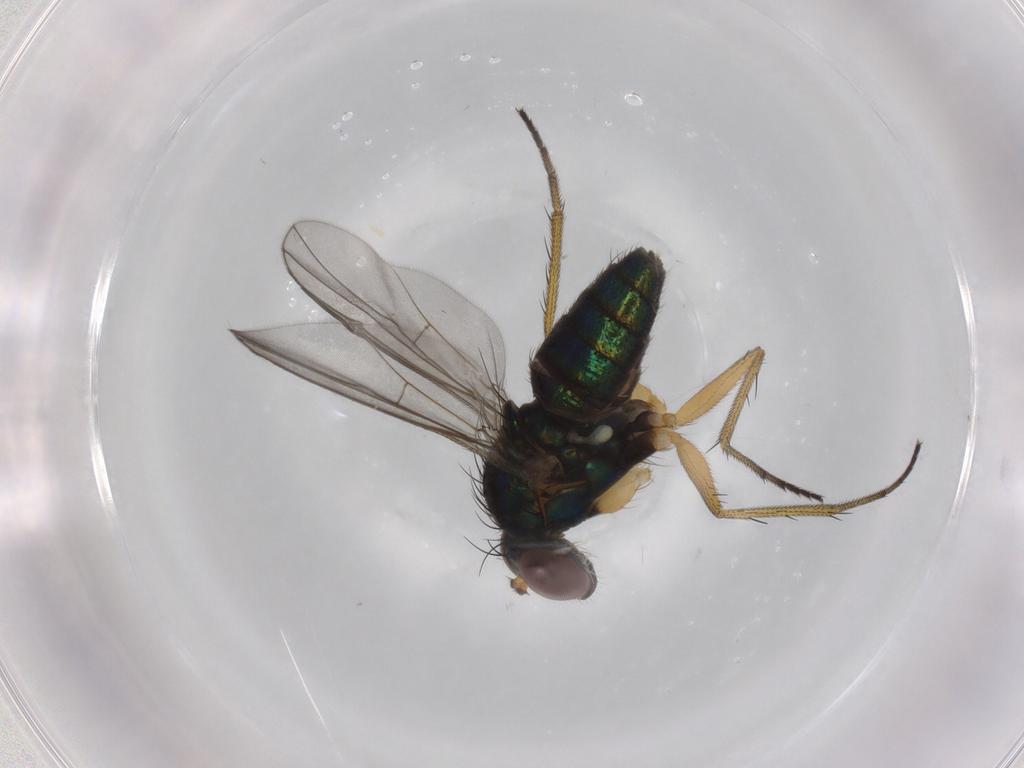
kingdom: Animalia
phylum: Arthropoda
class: Insecta
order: Diptera
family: Dolichopodidae
